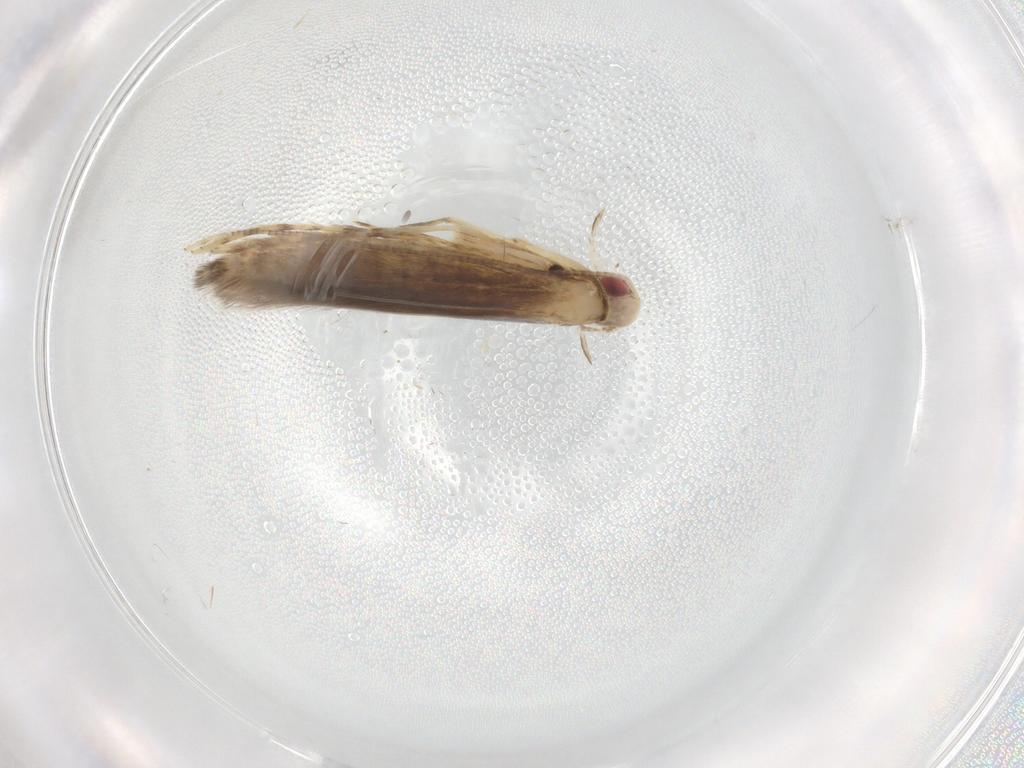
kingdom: Animalia
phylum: Arthropoda
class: Insecta
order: Lepidoptera
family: Gracillariidae
